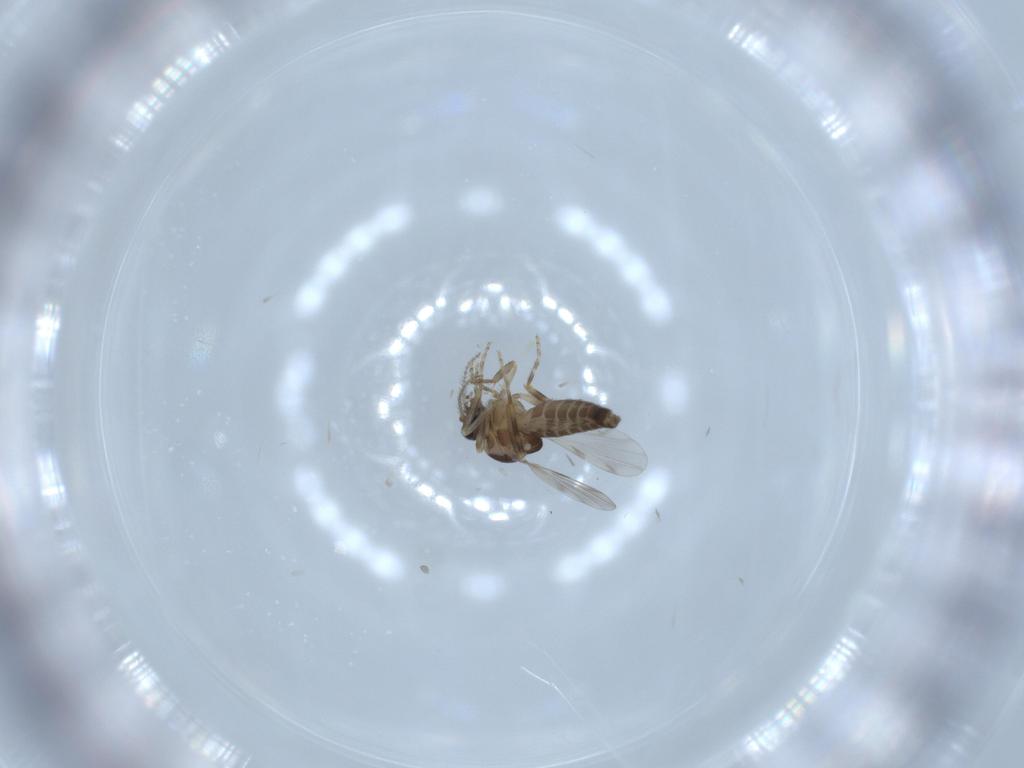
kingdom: Animalia
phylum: Arthropoda
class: Insecta
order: Diptera
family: Ceratopogonidae
